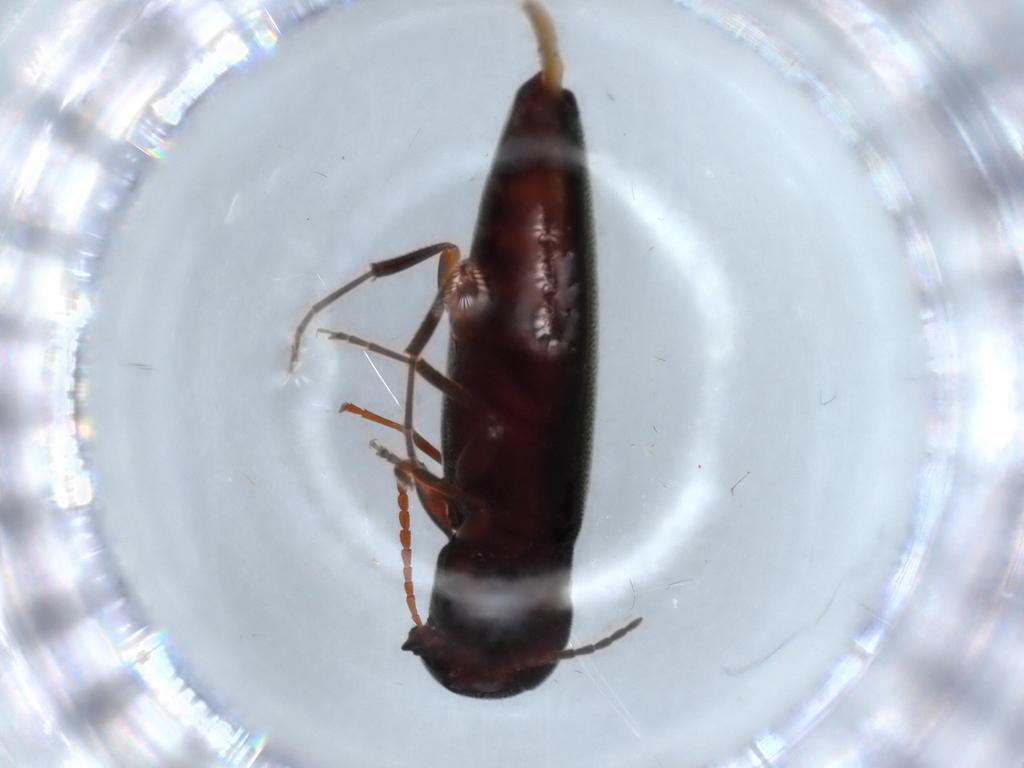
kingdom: Animalia
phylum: Arthropoda
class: Insecta
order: Coleoptera
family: Eucnemidae
